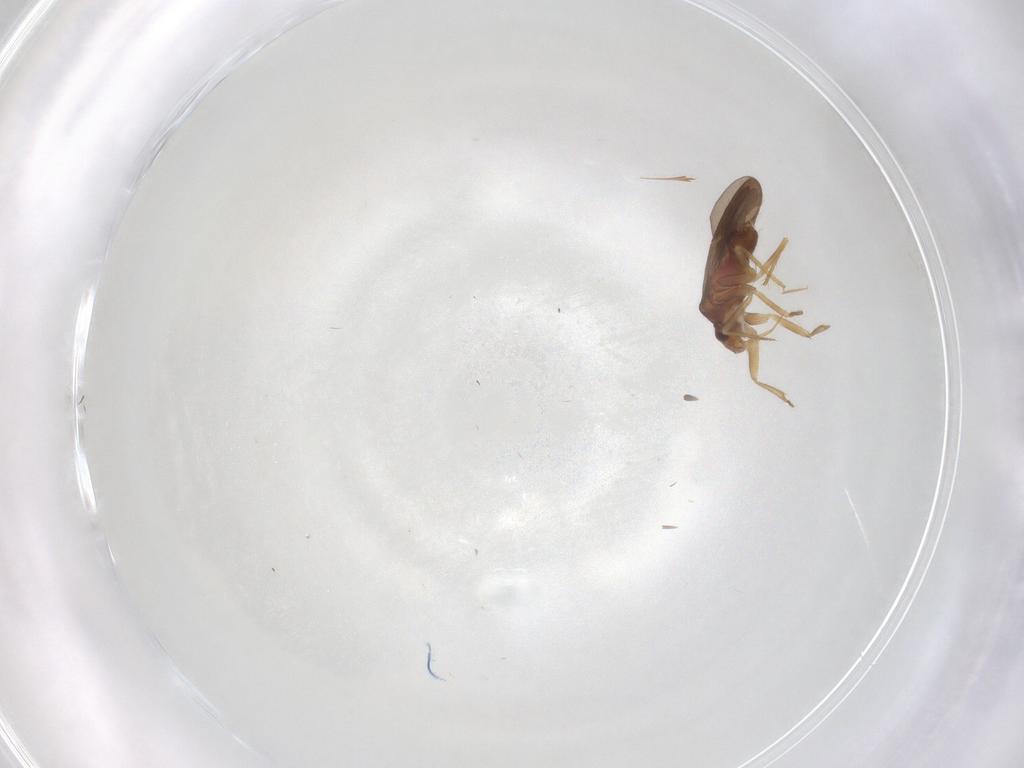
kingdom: Animalia
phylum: Arthropoda
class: Insecta
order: Hemiptera
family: Ceratocombidae
